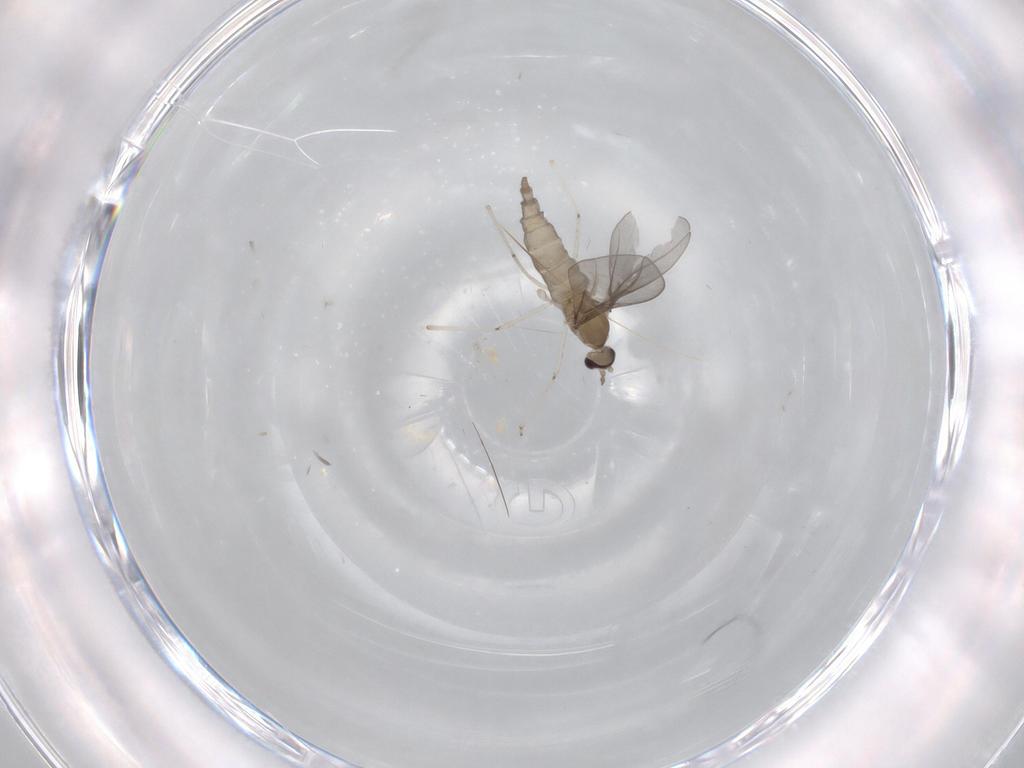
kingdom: Animalia
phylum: Arthropoda
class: Insecta
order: Diptera
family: Cecidomyiidae
